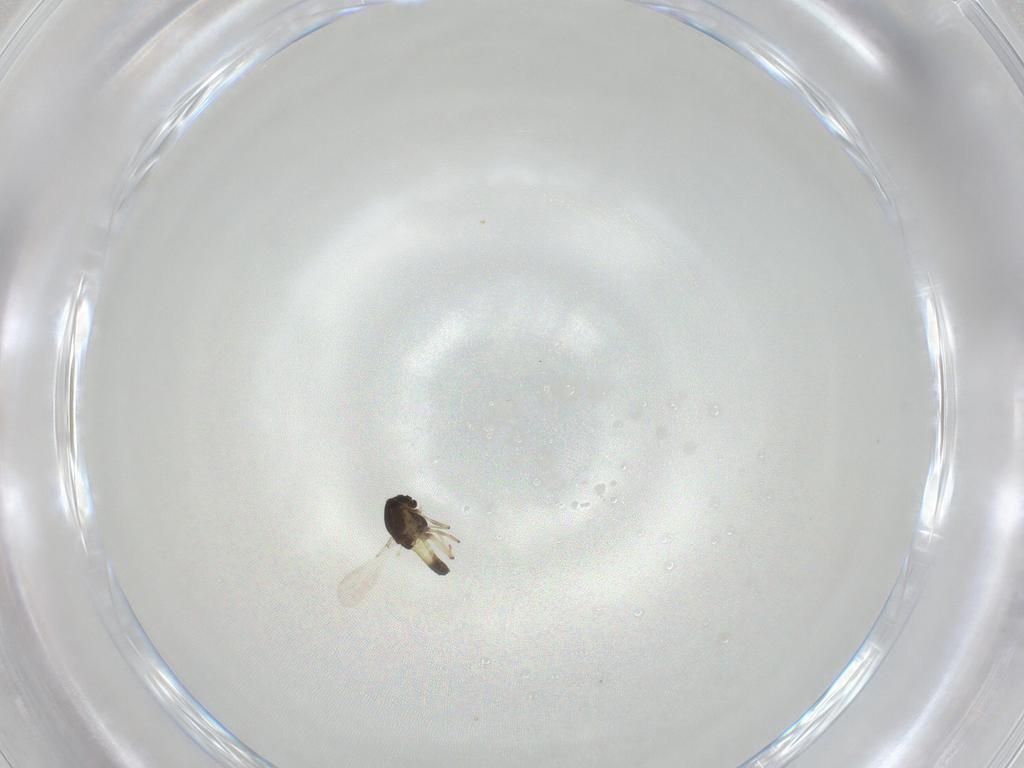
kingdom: Animalia
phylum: Arthropoda
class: Insecta
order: Diptera
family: Chironomidae
